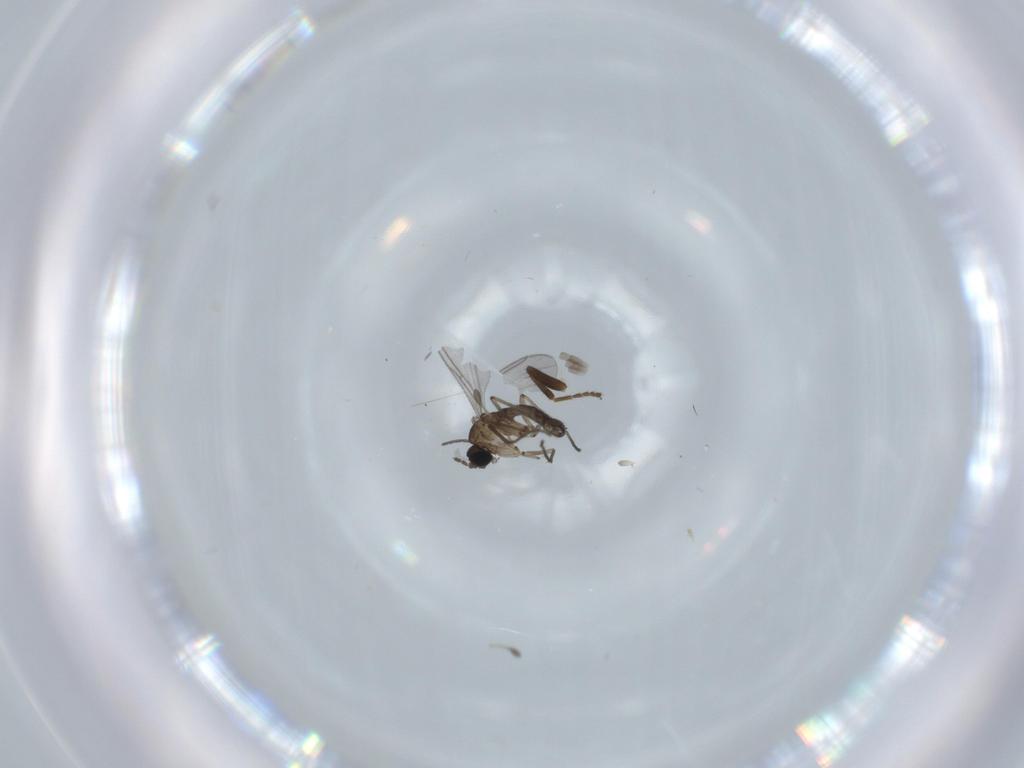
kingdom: Animalia
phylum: Arthropoda
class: Insecta
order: Diptera
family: Sciaridae
